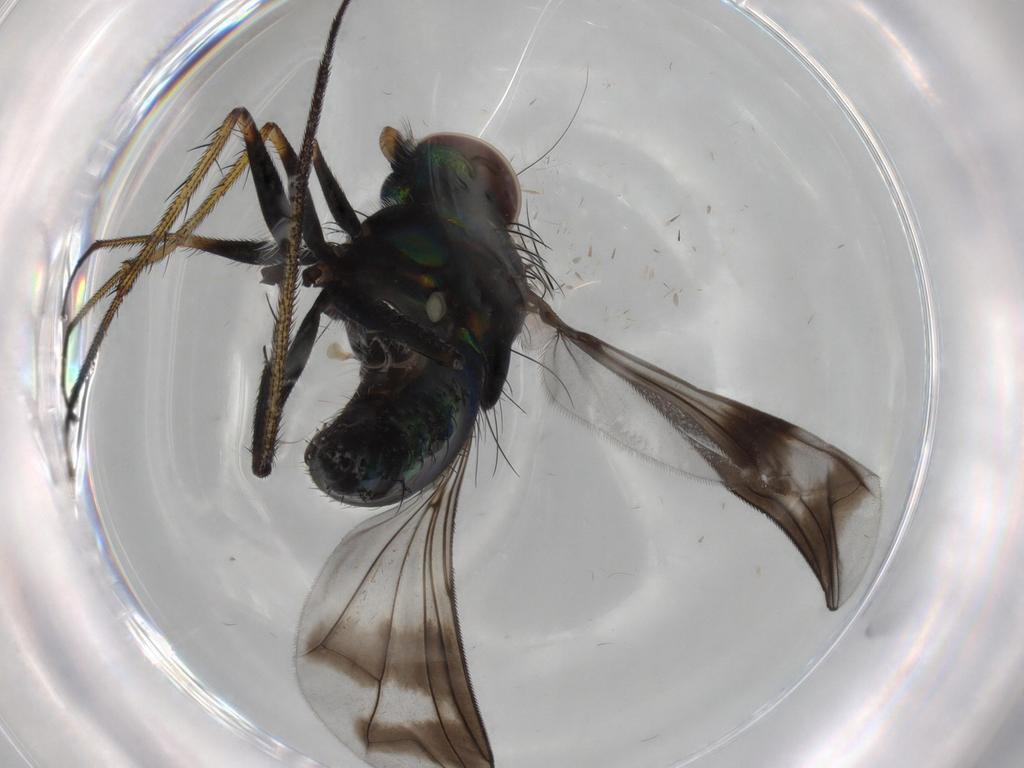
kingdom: Animalia
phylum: Arthropoda
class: Insecta
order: Diptera
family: Dolichopodidae
